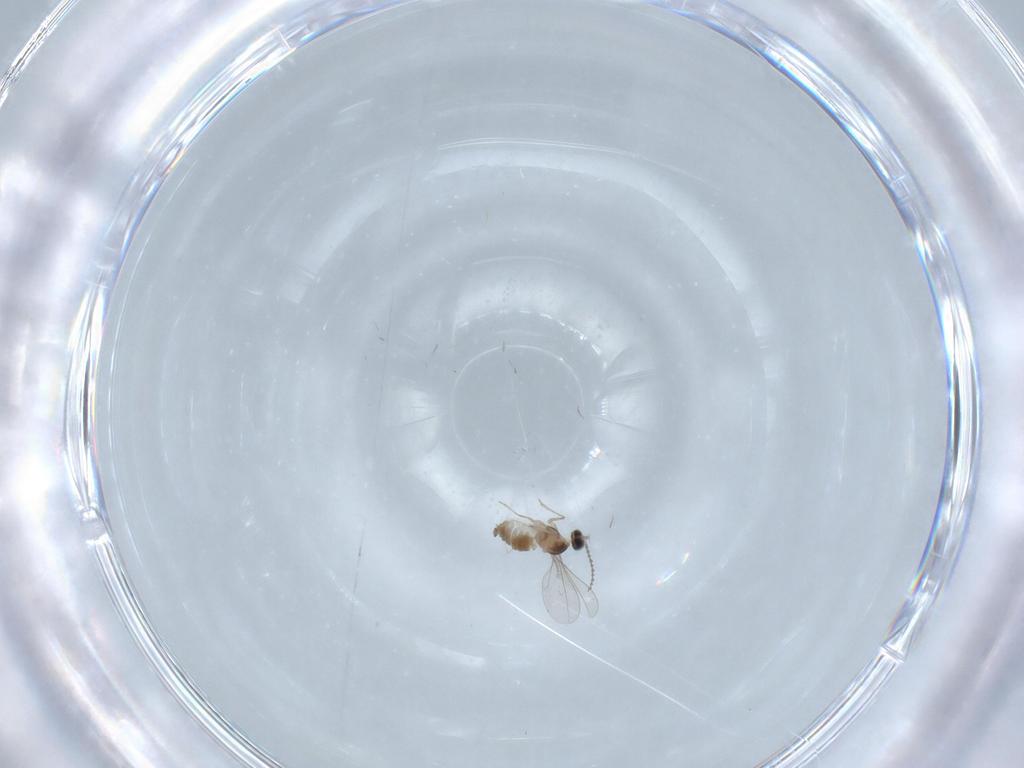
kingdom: Animalia
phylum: Arthropoda
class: Insecta
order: Diptera
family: Cecidomyiidae
